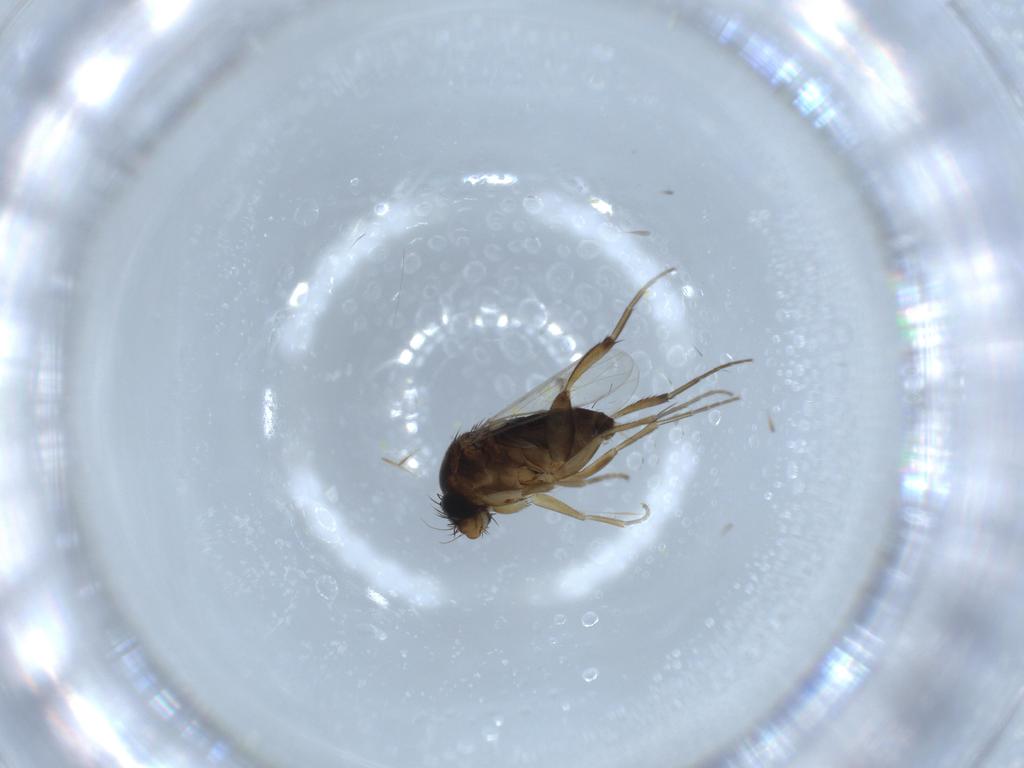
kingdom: Animalia
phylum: Arthropoda
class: Insecta
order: Diptera
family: Phoridae
